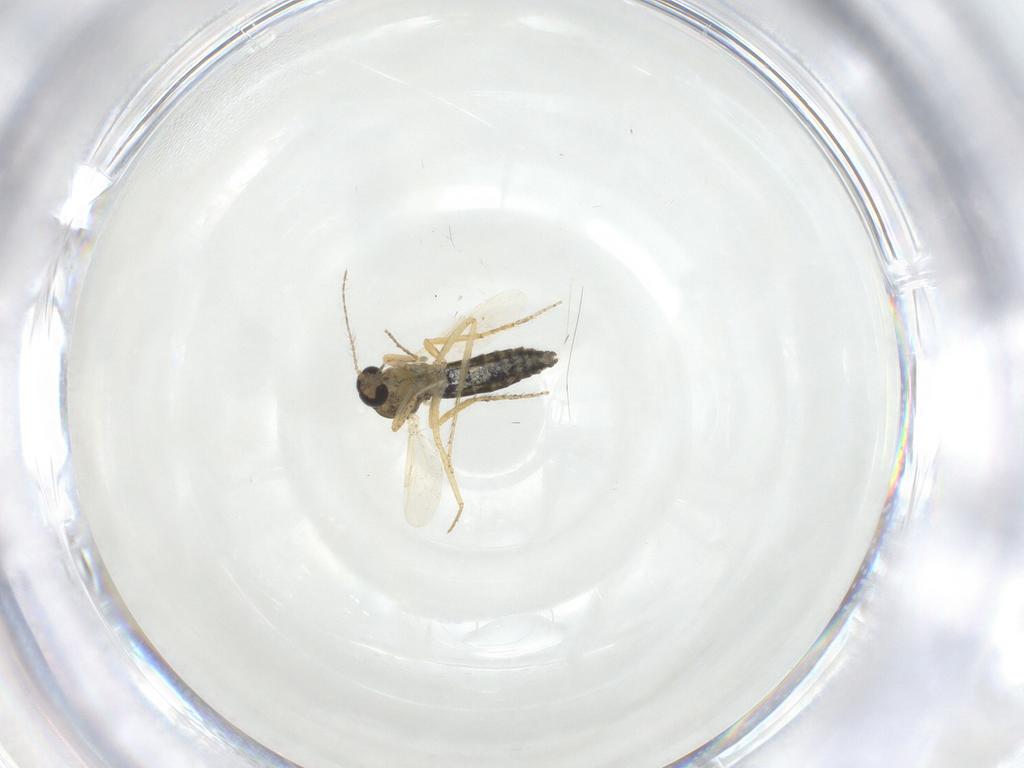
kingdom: Animalia
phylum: Arthropoda
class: Insecta
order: Diptera
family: Ceratopogonidae
